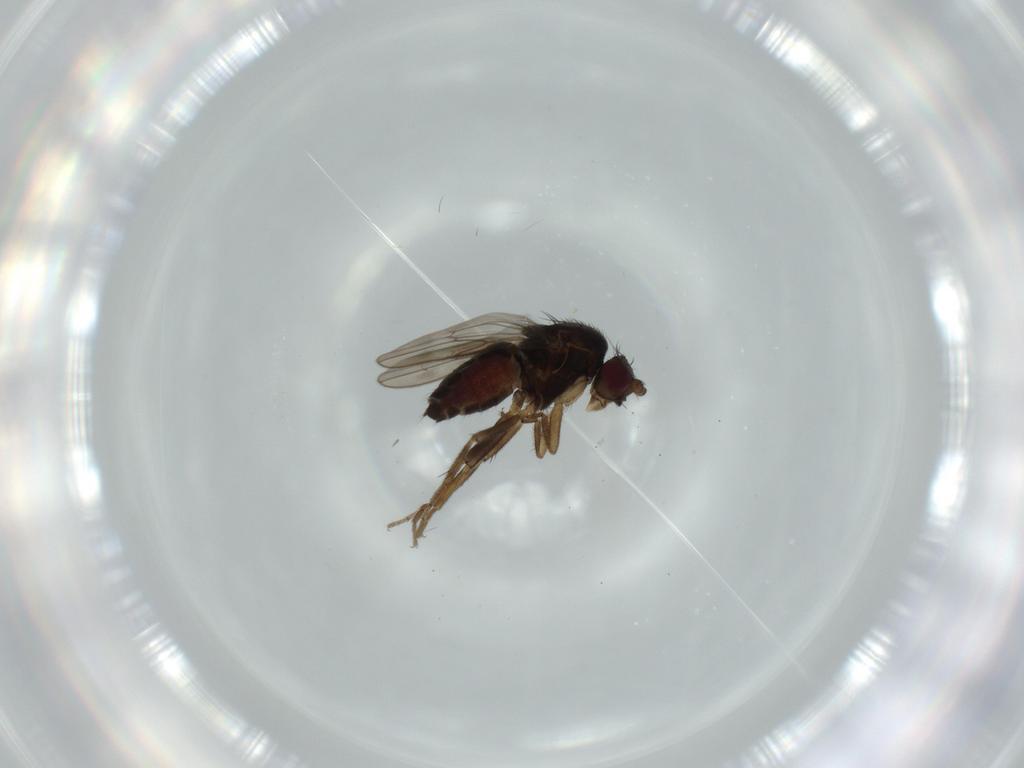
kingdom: Animalia
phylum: Arthropoda
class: Insecta
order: Diptera
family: Sphaeroceridae
